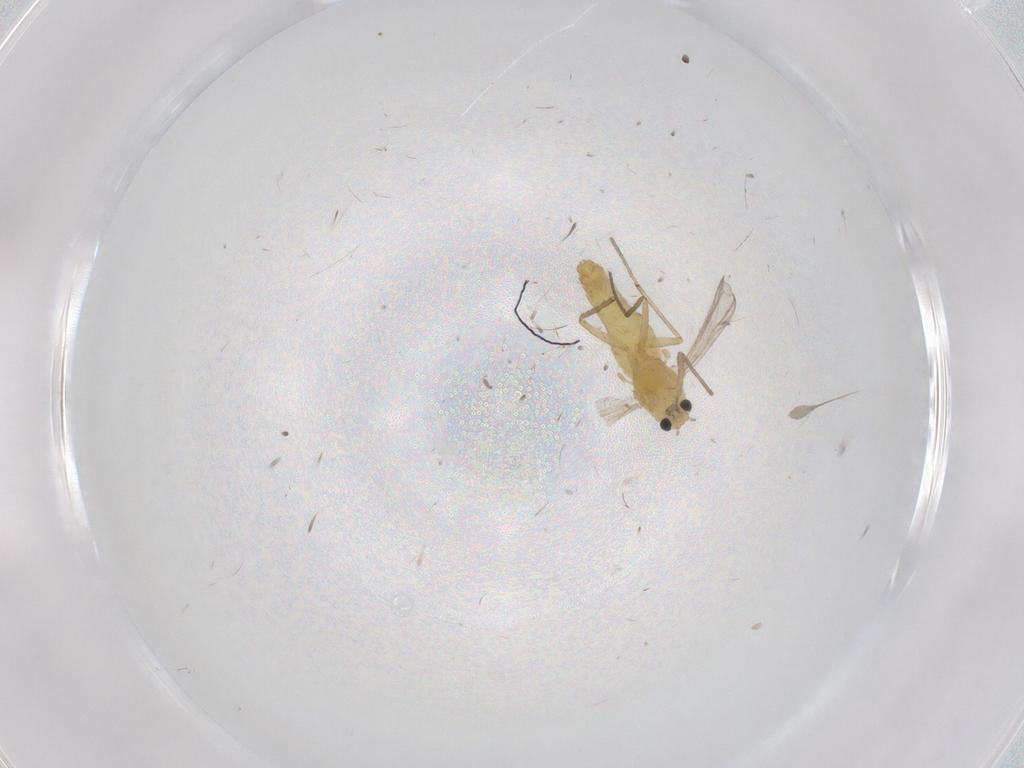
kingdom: Animalia
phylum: Arthropoda
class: Insecta
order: Diptera
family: Chironomidae
